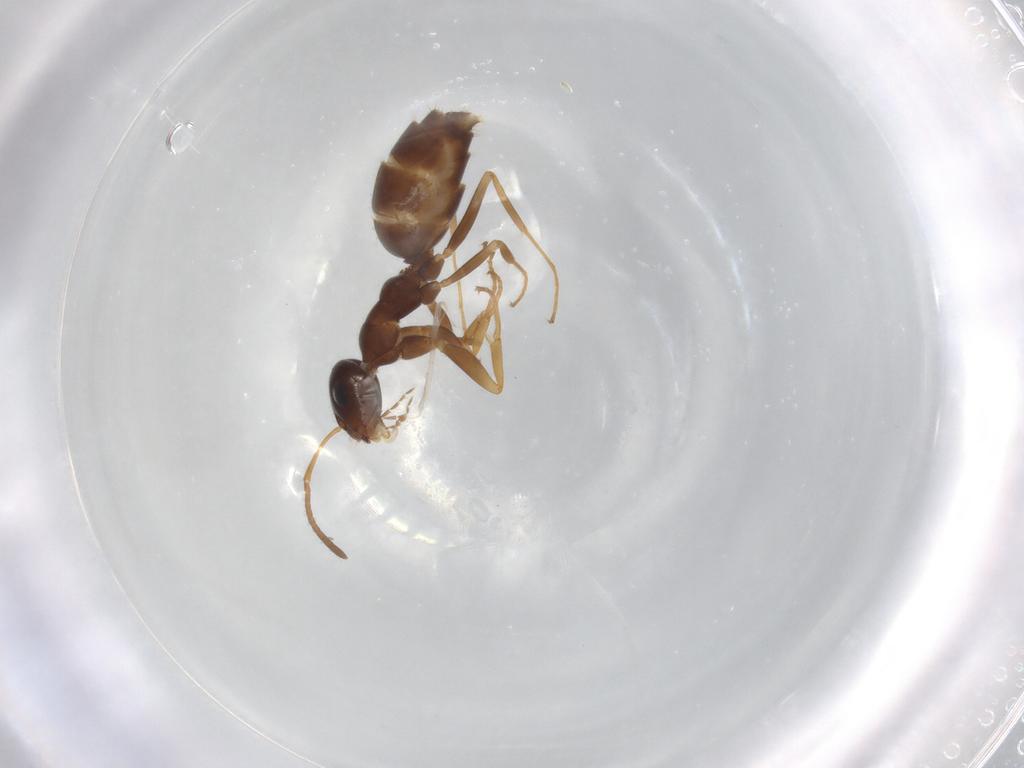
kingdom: Animalia
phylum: Arthropoda
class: Insecta
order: Hymenoptera
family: Formicidae
